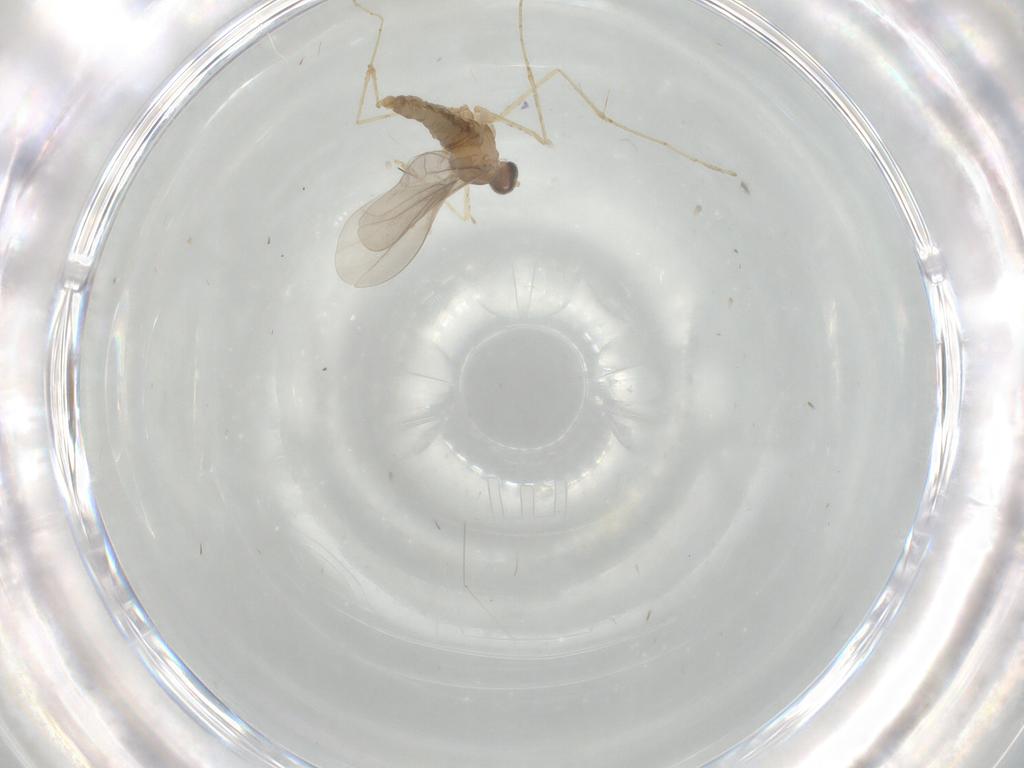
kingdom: Animalia
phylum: Arthropoda
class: Insecta
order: Diptera
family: Cecidomyiidae
